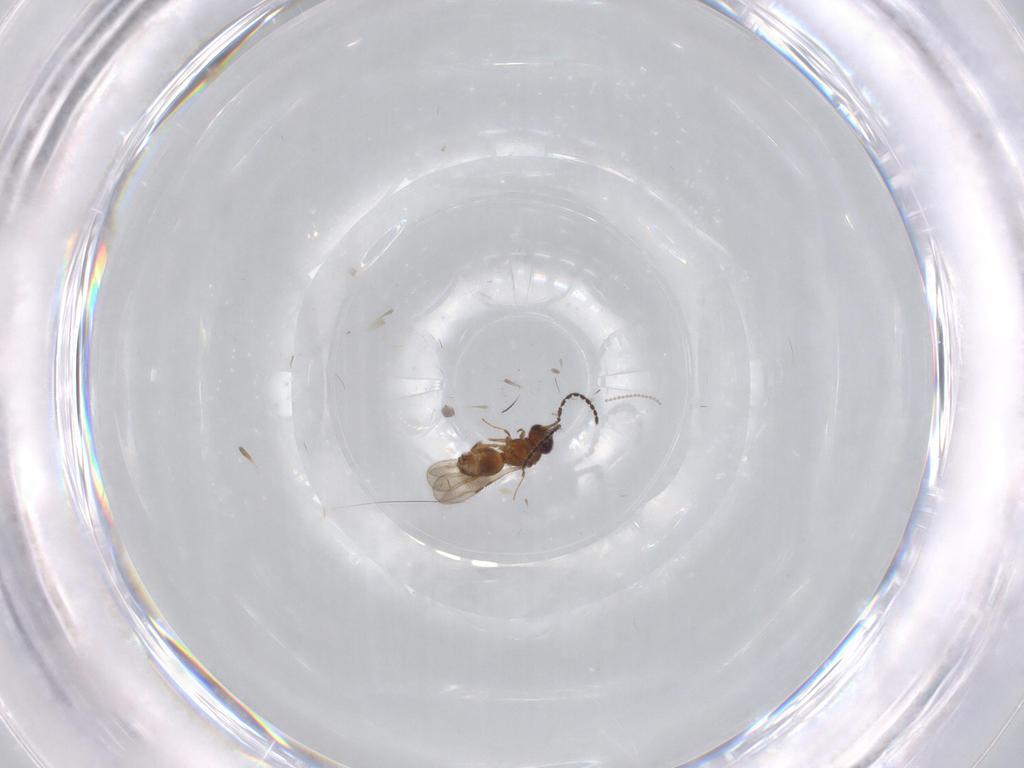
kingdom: Animalia
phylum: Arthropoda
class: Insecta
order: Hymenoptera
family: Ceraphronidae
